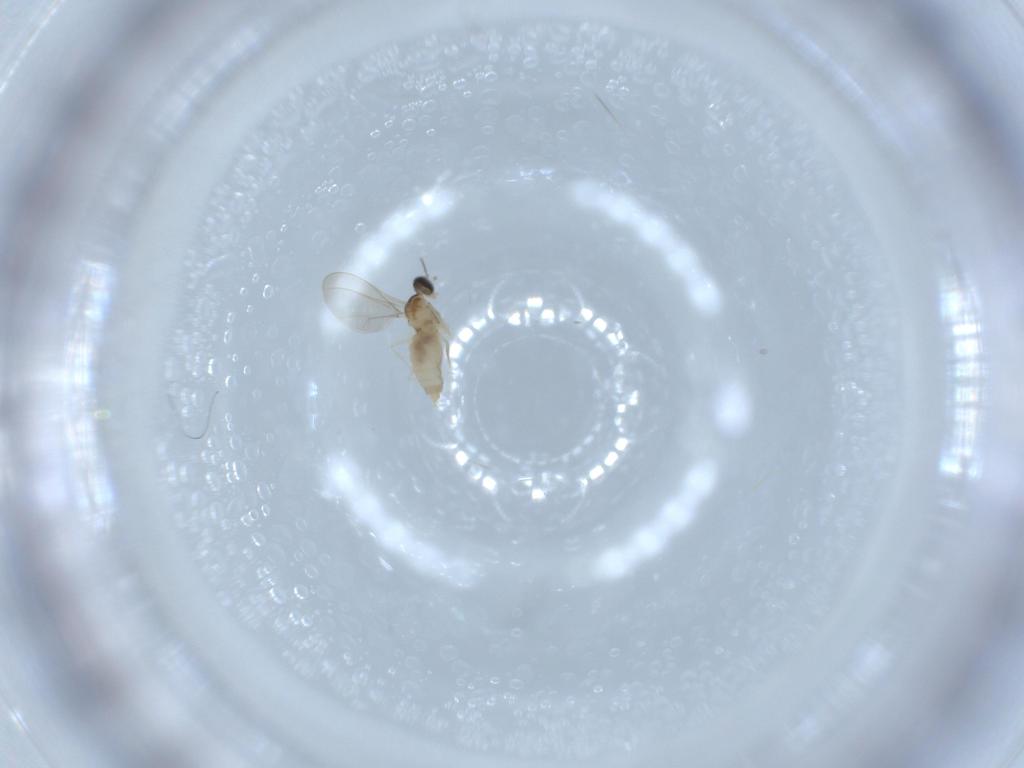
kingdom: Animalia
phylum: Arthropoda
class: Insecta
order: Diptera
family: Cecidomyiidae
